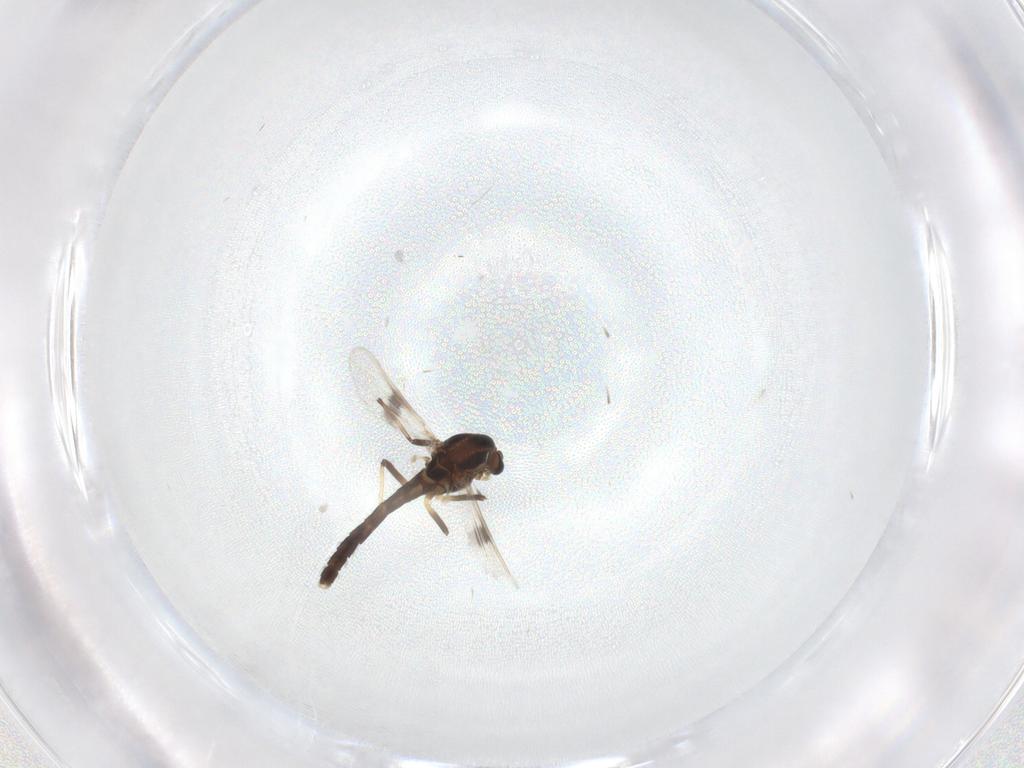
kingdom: Animalia
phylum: Arthropoda
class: Insecta
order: Diptera
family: Chironomidae
